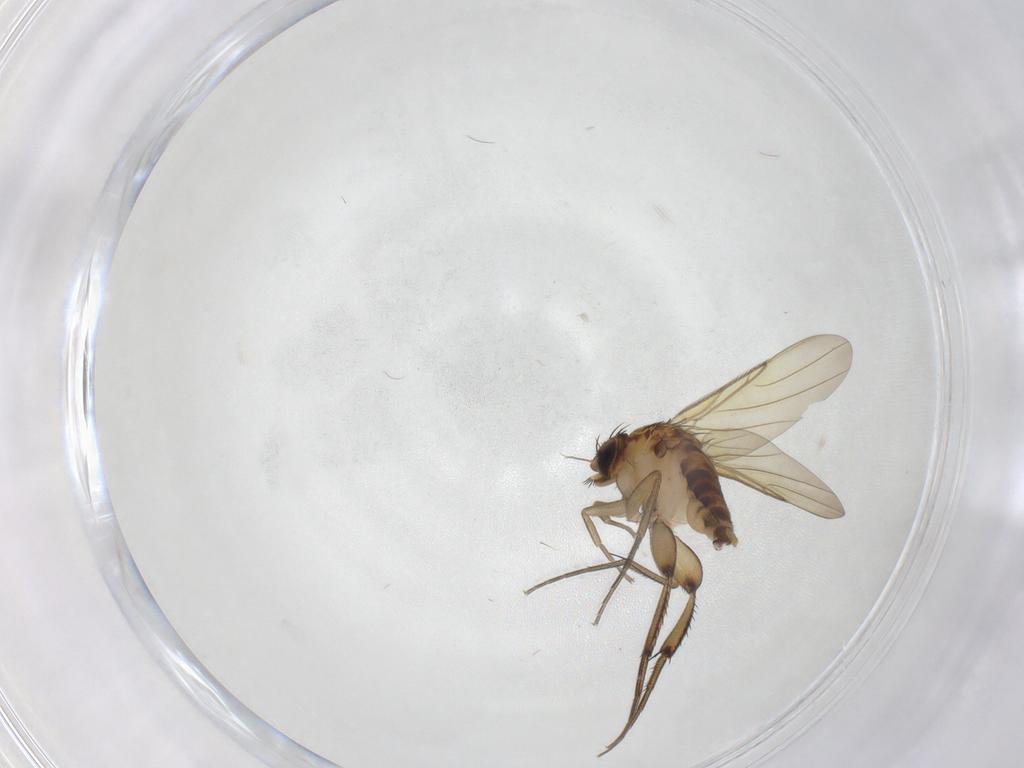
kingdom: Animalia
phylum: Arthropoda
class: Insecta
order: Diptera
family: Phoridae
